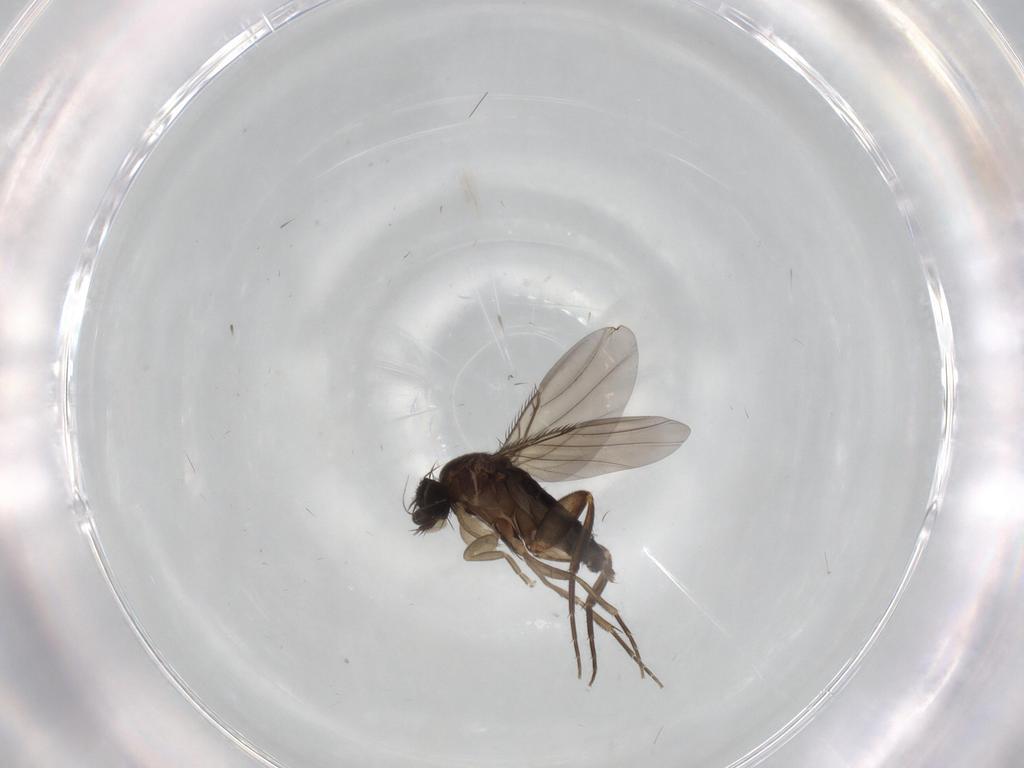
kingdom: Animalia
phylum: Arthropoda
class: Insecta
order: Diptera
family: Phoridae
